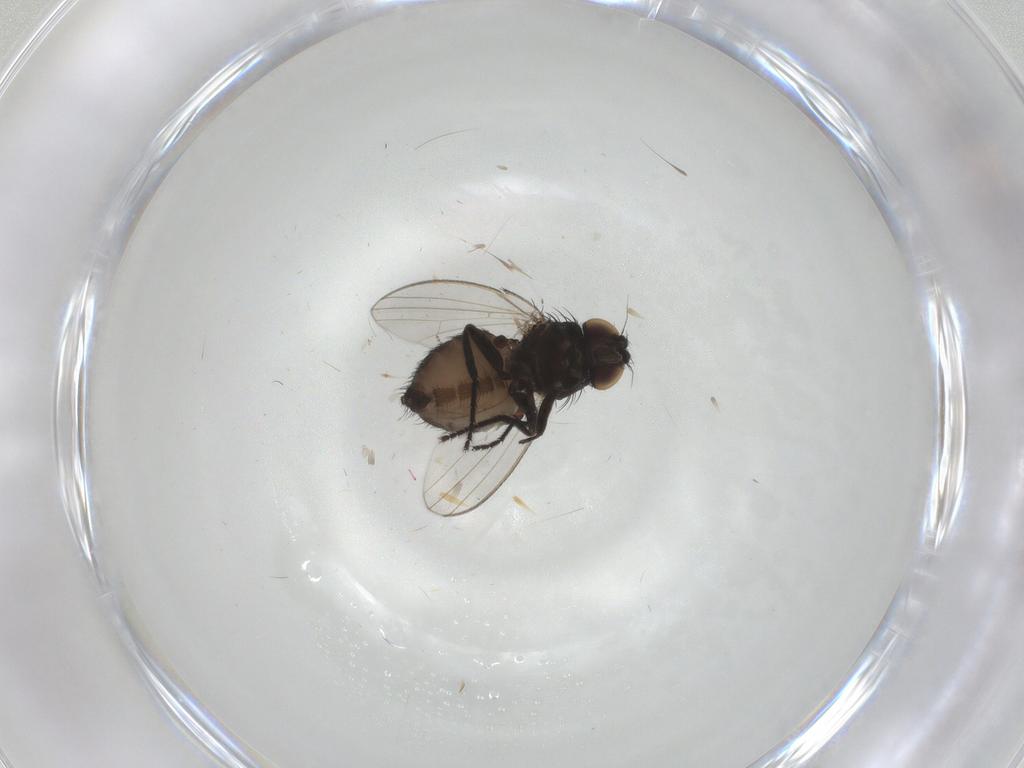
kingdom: Animalia
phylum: Arthropoda
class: Insecta
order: Diptera
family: Milichiidae
